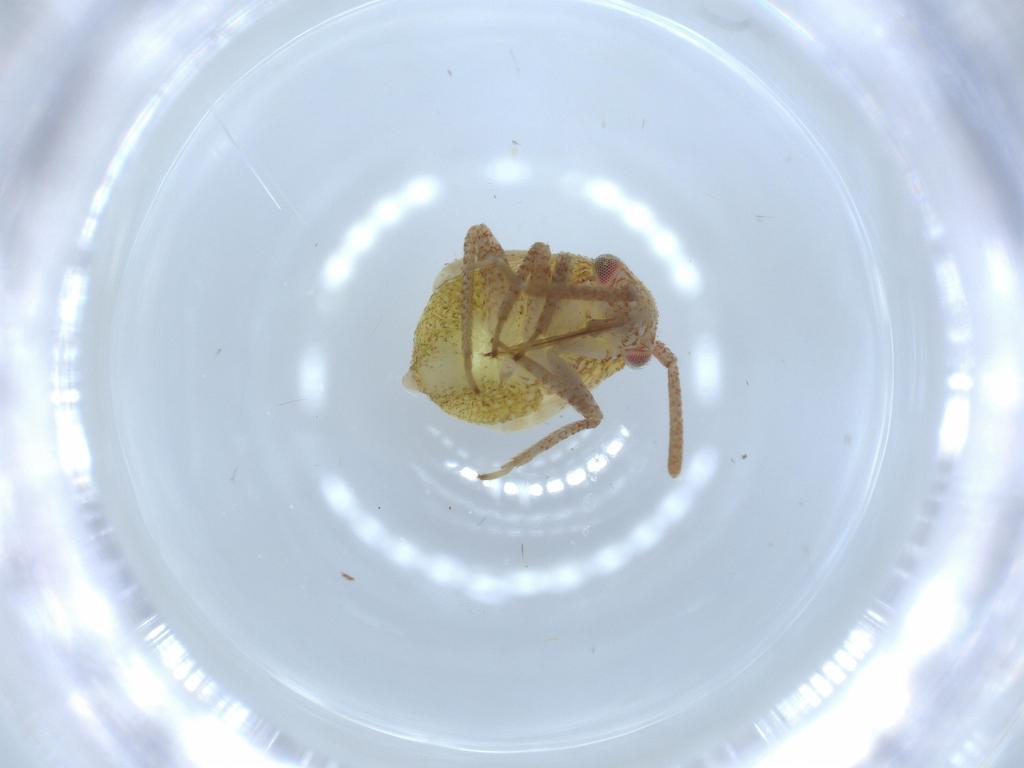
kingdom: Animalia
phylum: Arthropoda
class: Insecta
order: Hemiptera
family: Miridae
